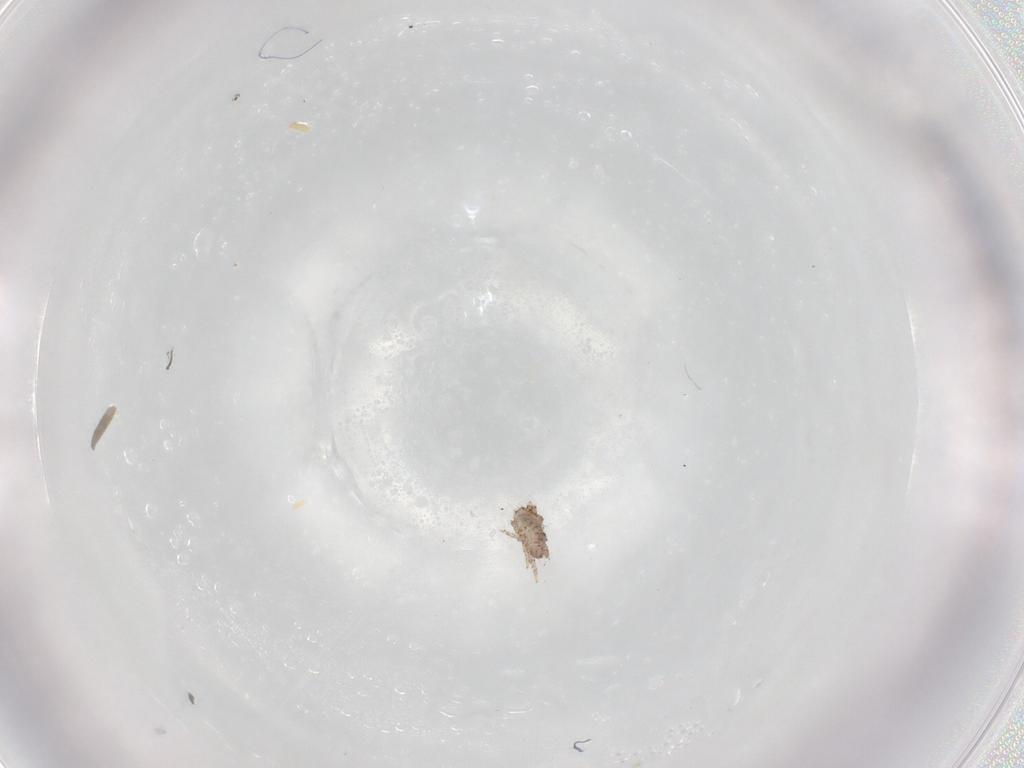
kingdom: Animalia
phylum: Arthropoda
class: Arachnida
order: Sarcoptiformes
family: Crotoniidae
